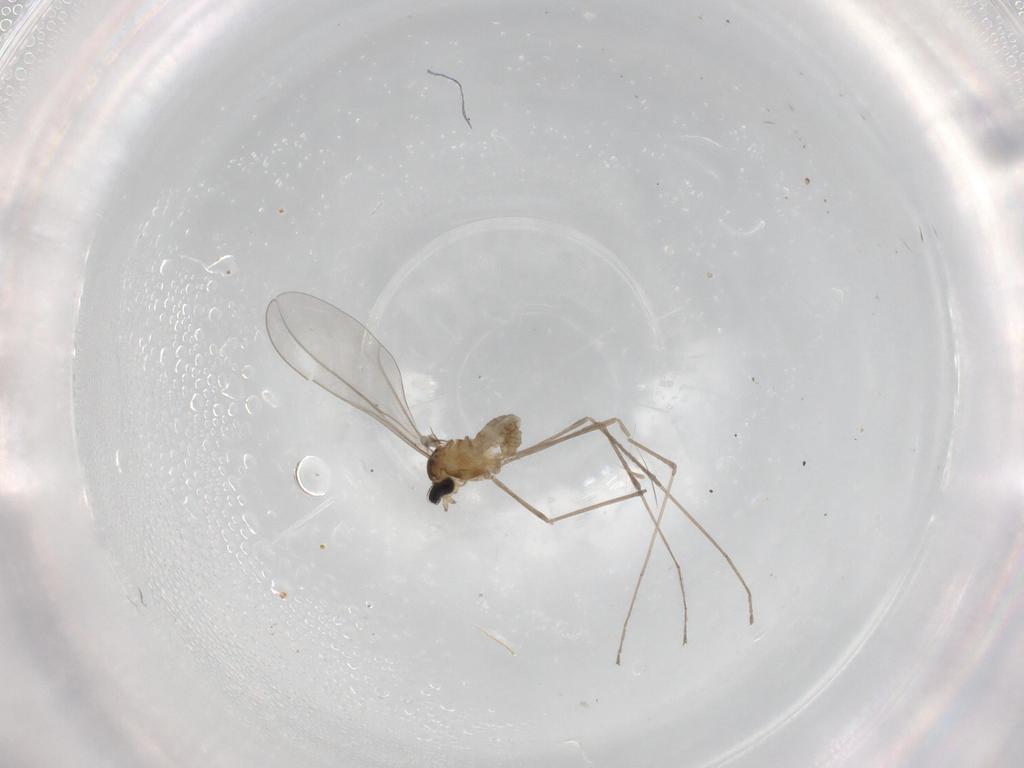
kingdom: Animalia
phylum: Arthropoda
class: Insecta
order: Diptera
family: Cecidomyiidae
